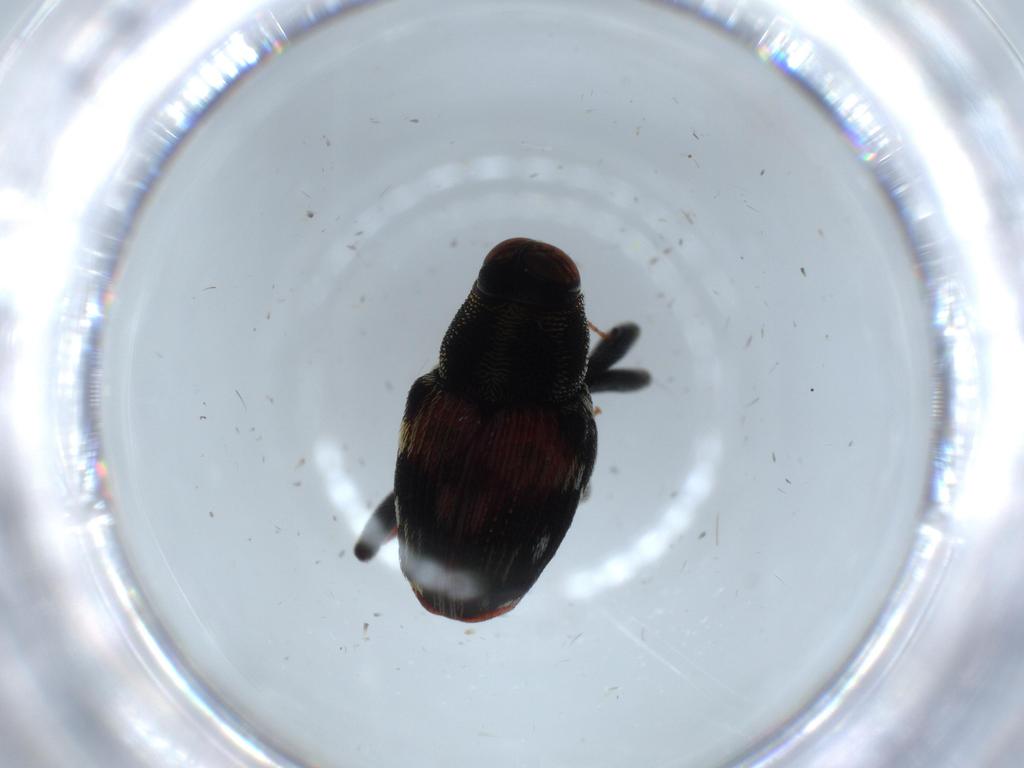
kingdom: Animalia
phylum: Arthropoda
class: Insecta
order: Coleoptera
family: Curculionidae
